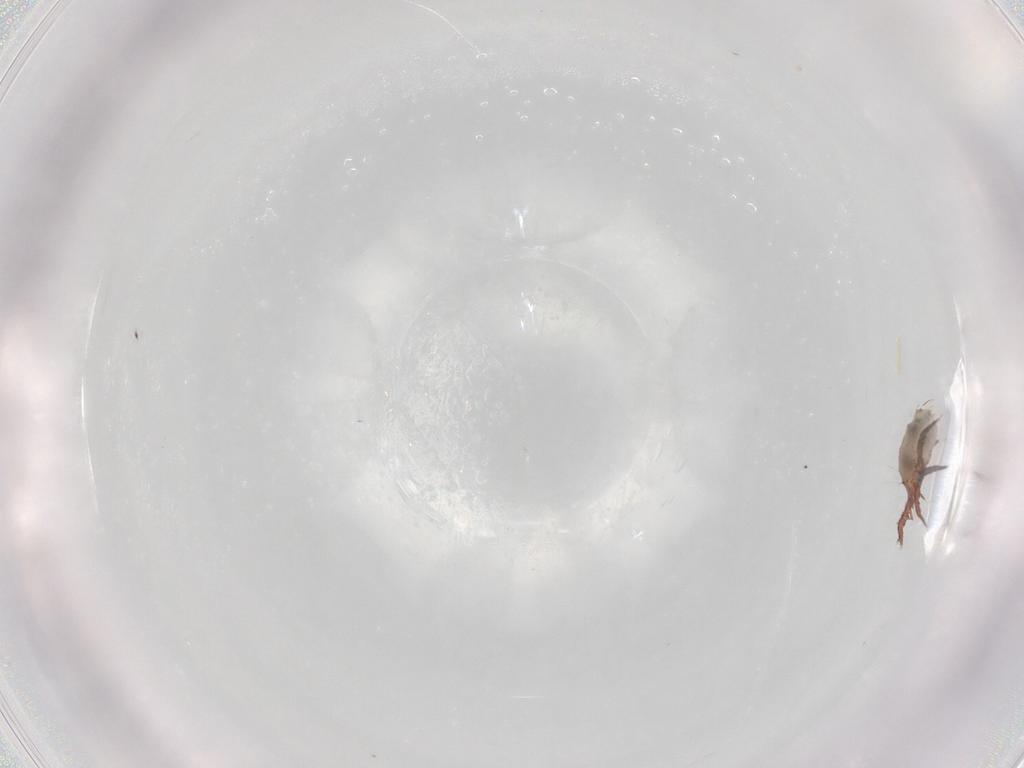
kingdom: Animalia
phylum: Arthropoda
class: Arachnida
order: Sarcoptiformes
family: Nothridae
